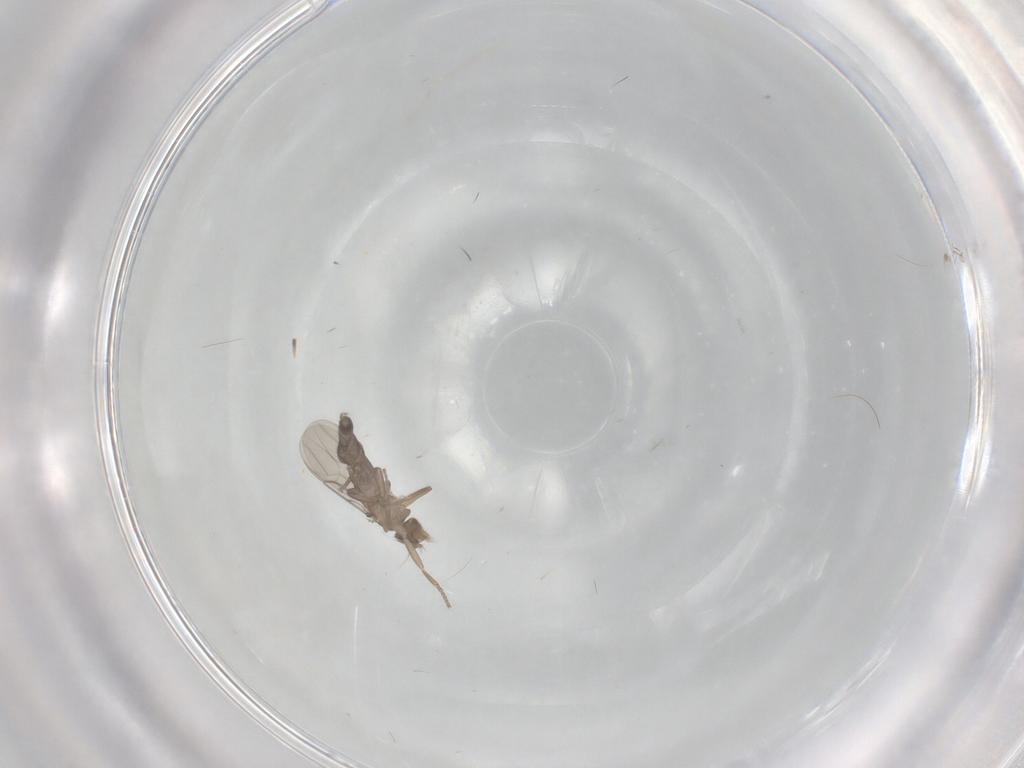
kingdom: Animalia
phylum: Arthropoda
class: Insecta
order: Diptera
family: Phoridae
